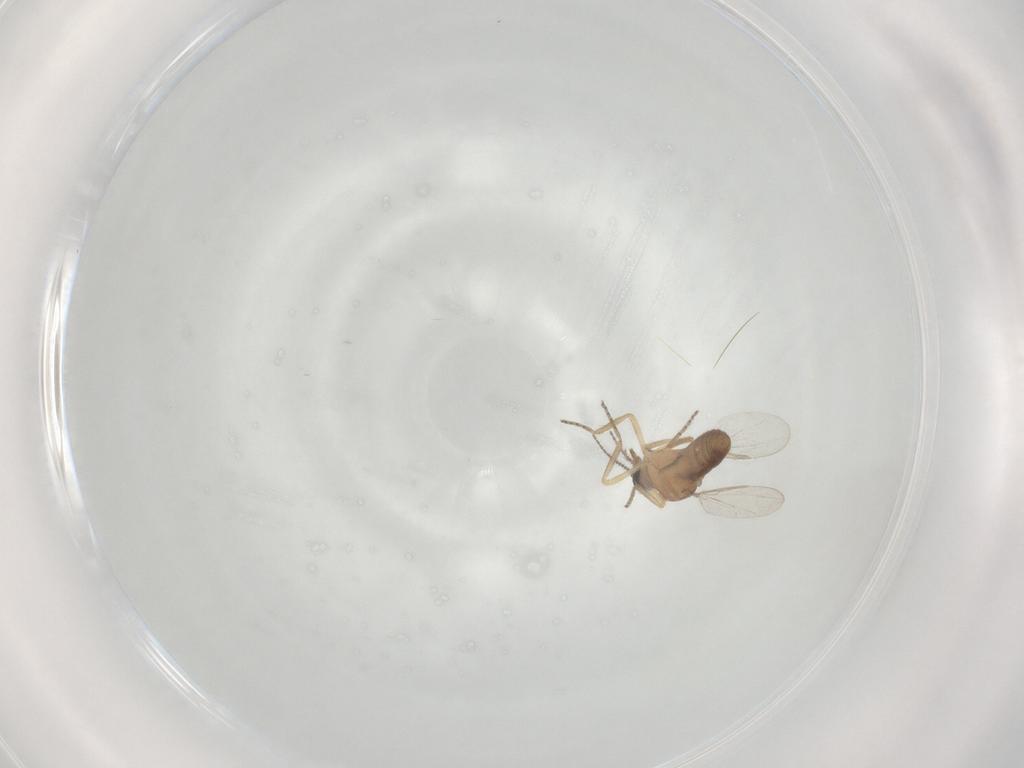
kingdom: Animalia
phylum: Arthropoda
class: Insecta
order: Diptera
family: Ceratopogonidae
